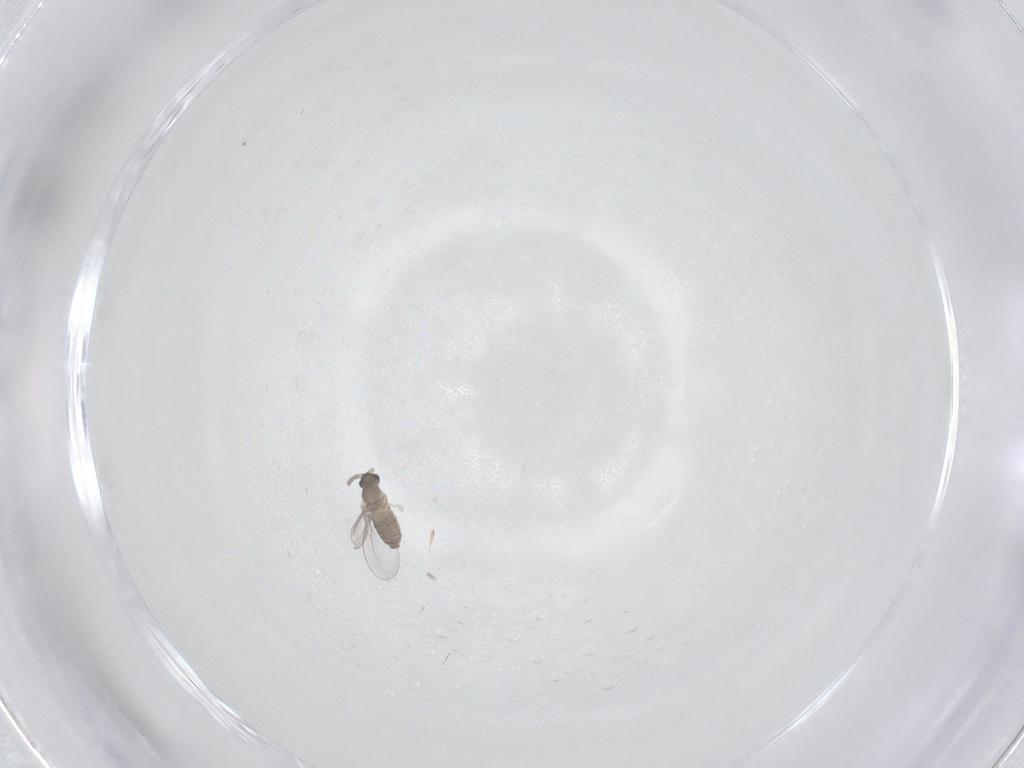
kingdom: Animalia
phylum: Arthropoda
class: Insecta
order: Diptera
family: Cecidomyiidae
